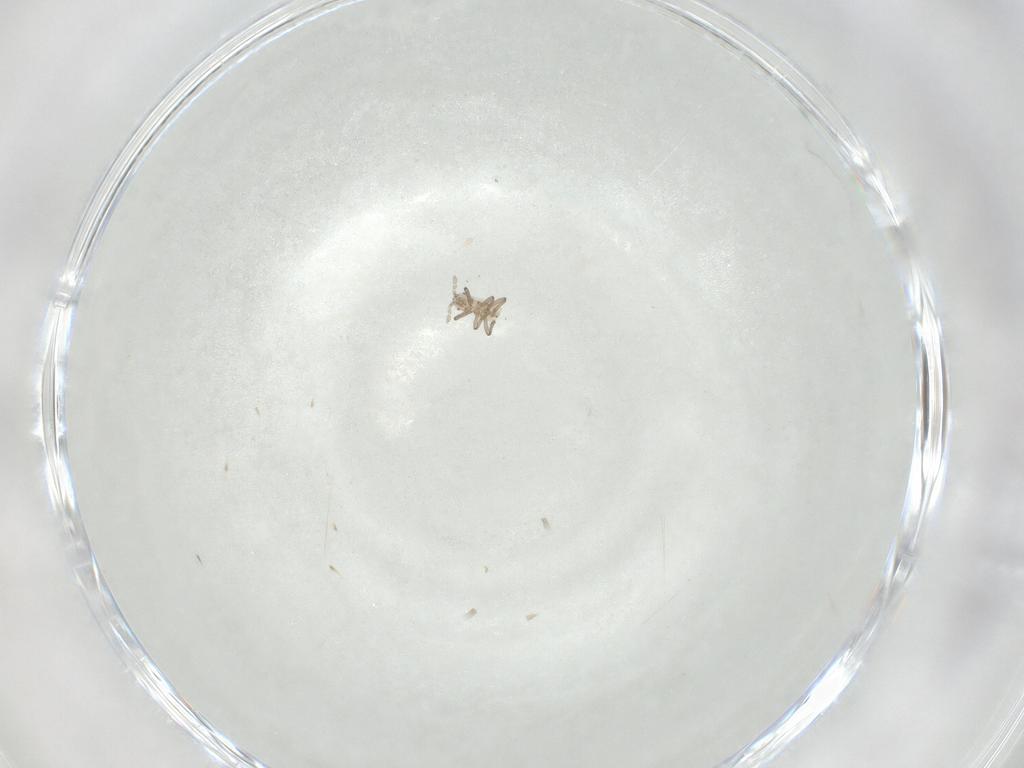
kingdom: Animalia
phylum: Arthropoda
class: Insecta
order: Hemiptera
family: Aphididae
